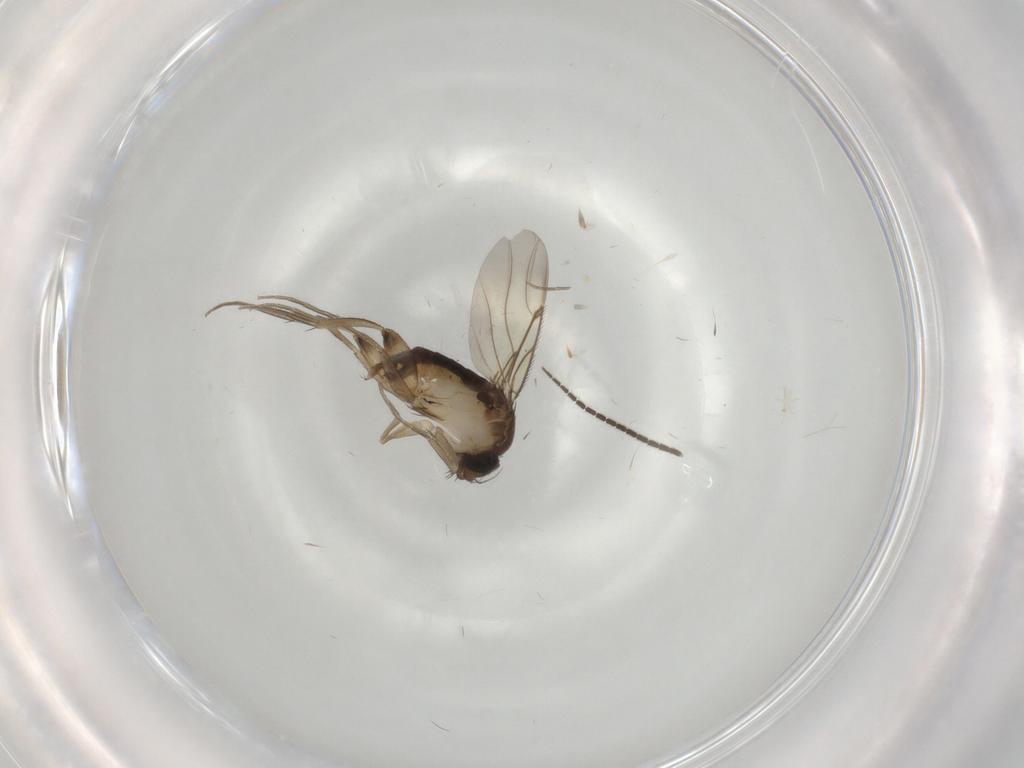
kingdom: Animalia
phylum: Arthropoda
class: Insecta
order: Diptera
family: Phoridae
